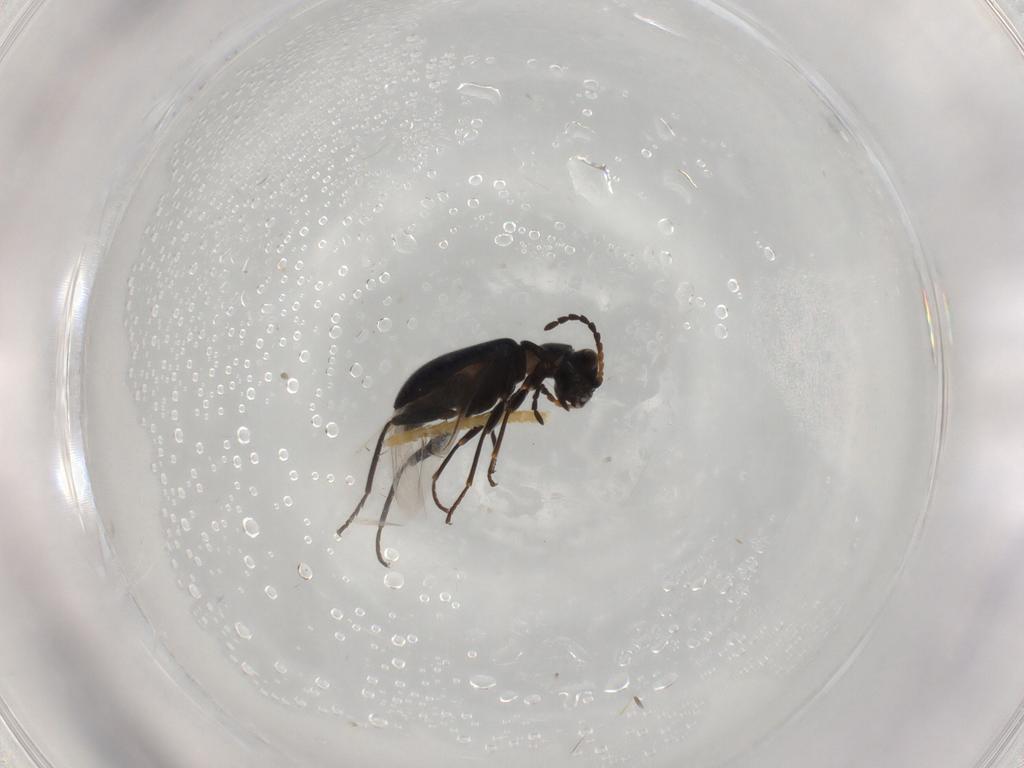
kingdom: Animalia
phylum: Arthropoda
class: Insecta
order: Coleoptera
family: Melyridae
